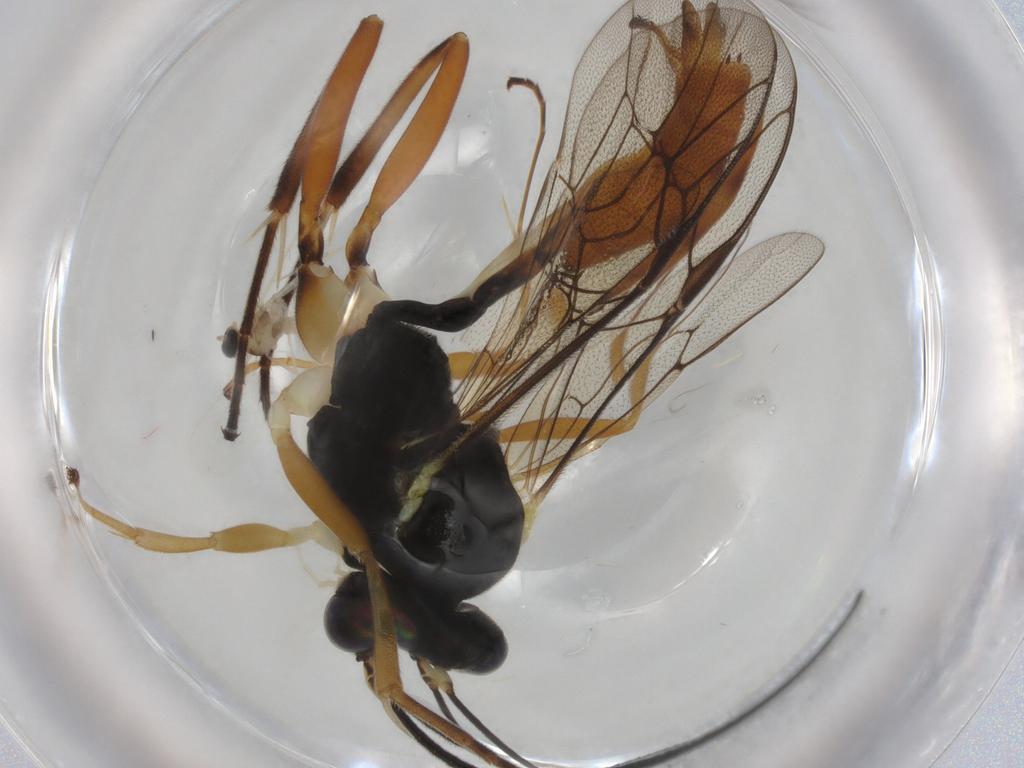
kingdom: Animalia
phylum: Arthropoda
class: Insecta
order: Hymenoptera
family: Ichneumonidae
